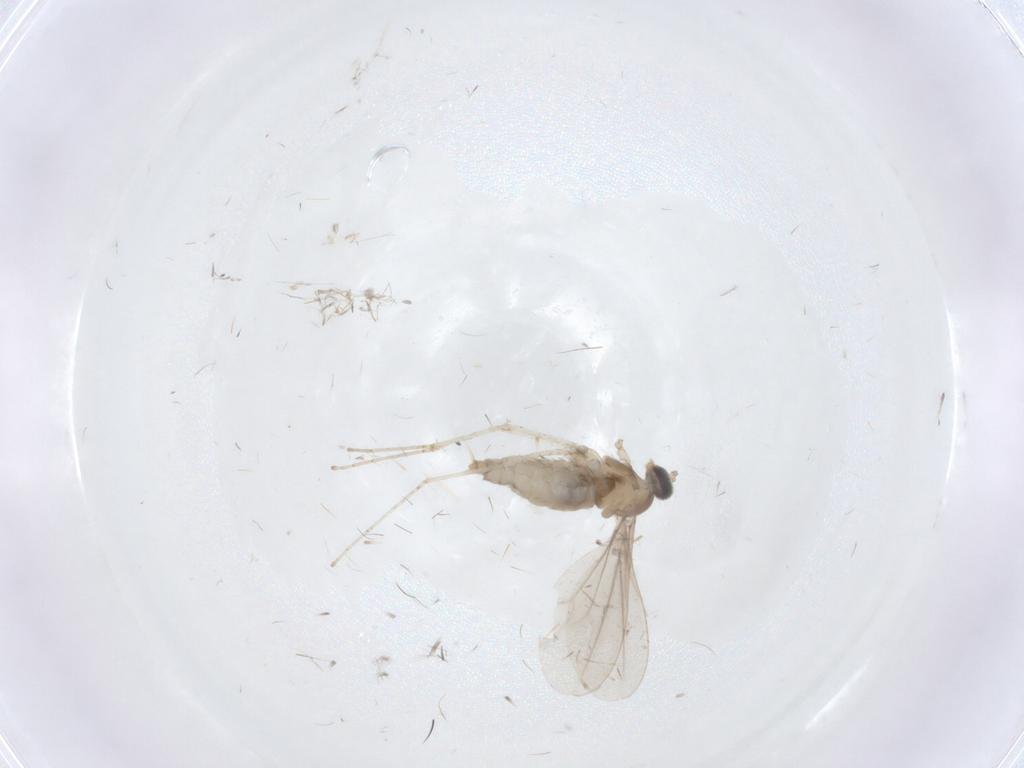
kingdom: Animalia
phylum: Arthropoda
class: Insecta
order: Diptera
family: Cecidomyiidae
